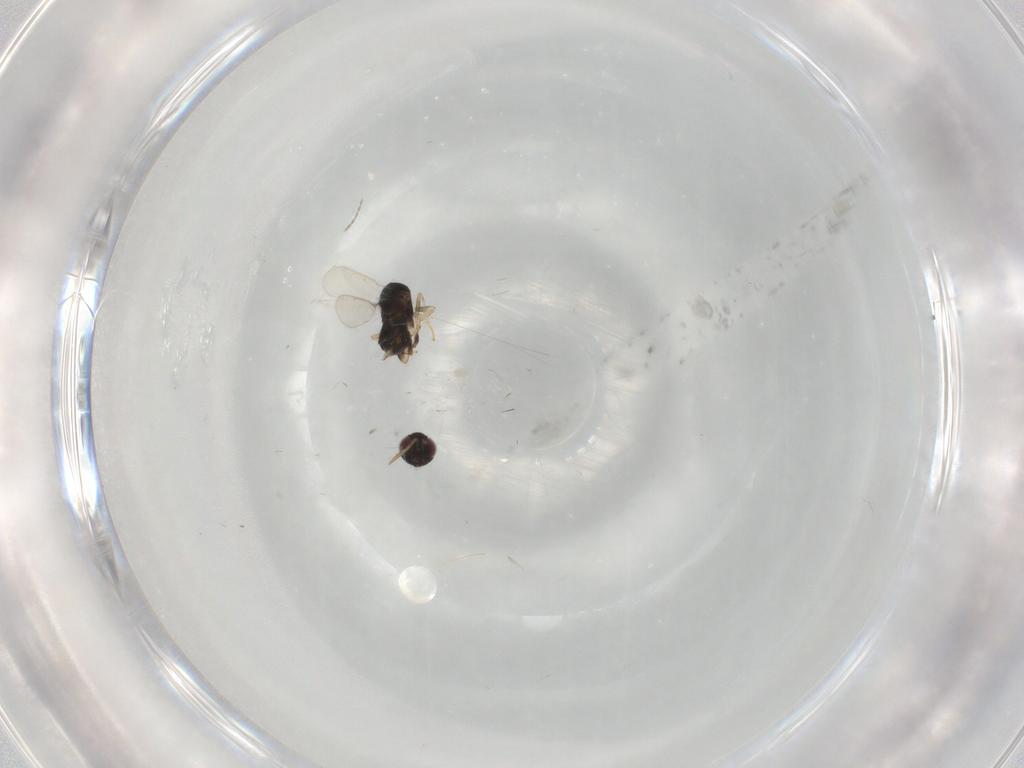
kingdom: Animalia
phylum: Arthropoda
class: Insecta
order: Hymenoptera
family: Aphelinidae
